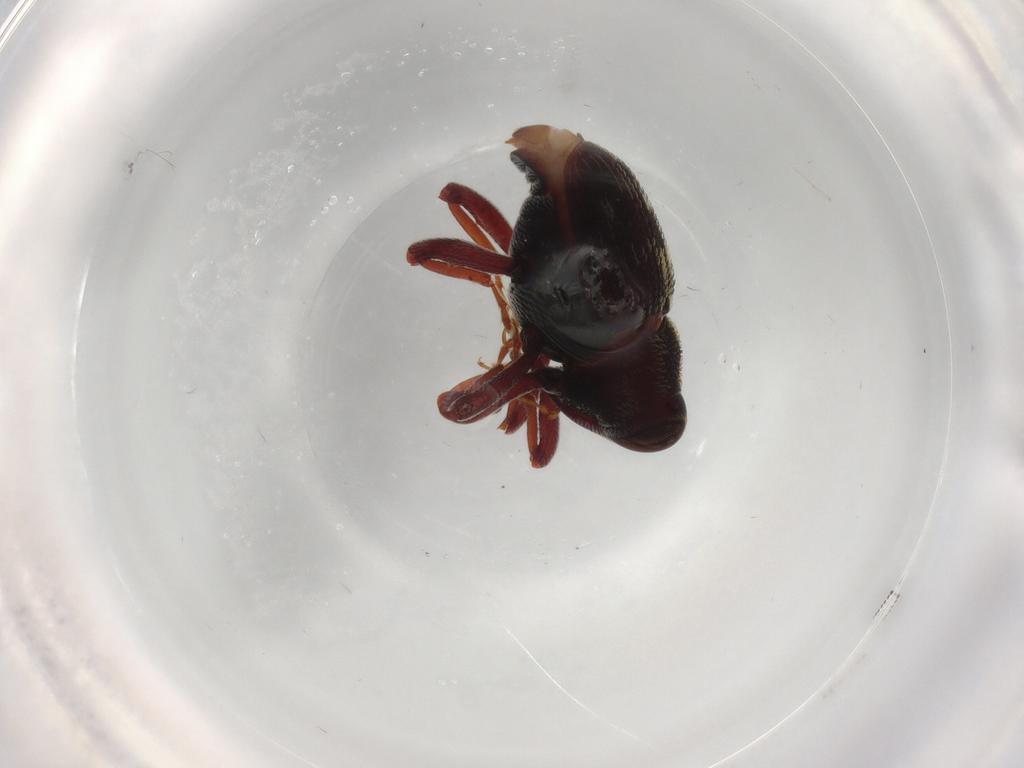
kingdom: Animalia
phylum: Arthropoda
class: Insecta
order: Coleoptera
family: Curculionidae
